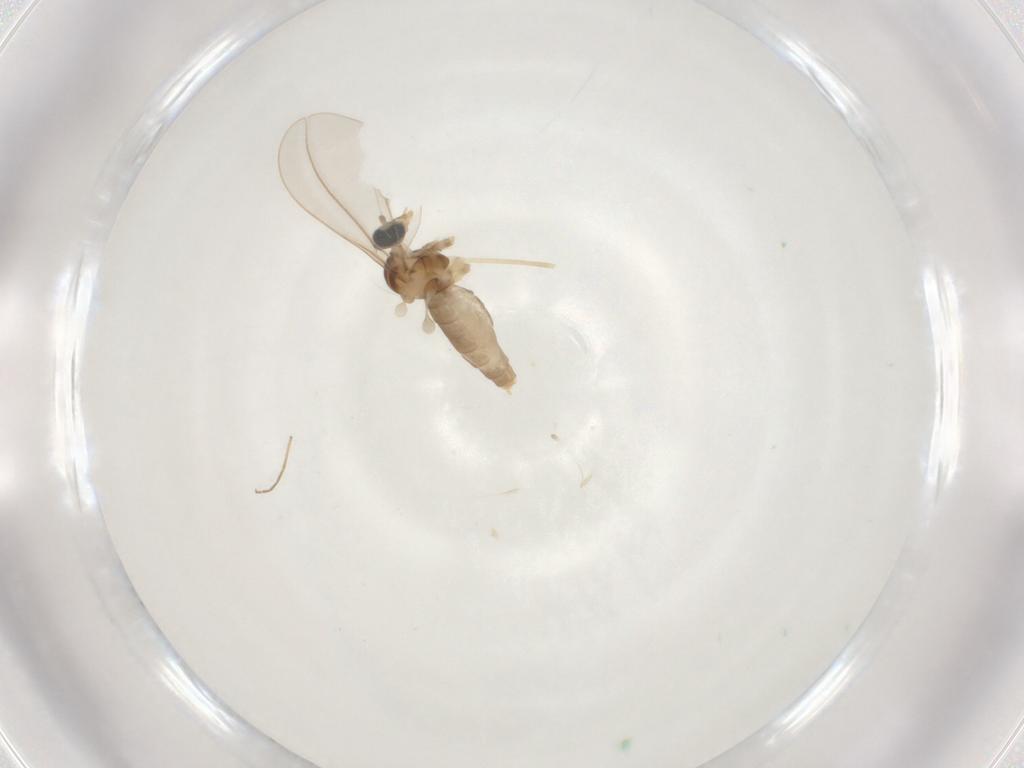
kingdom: Animalia
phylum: Arthropoda
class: Insecta
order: Diptera
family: Cecidomyiidae
